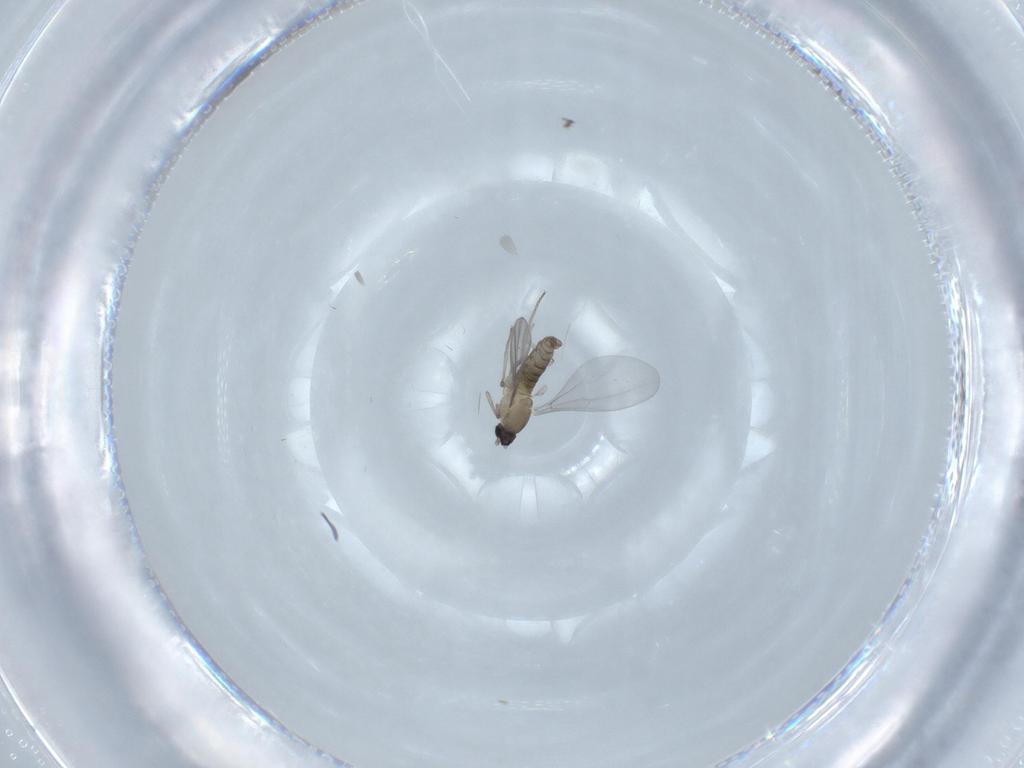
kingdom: Animalia
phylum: Arthropoda
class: Insecta
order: Diptera
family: Cecidomyiidae
